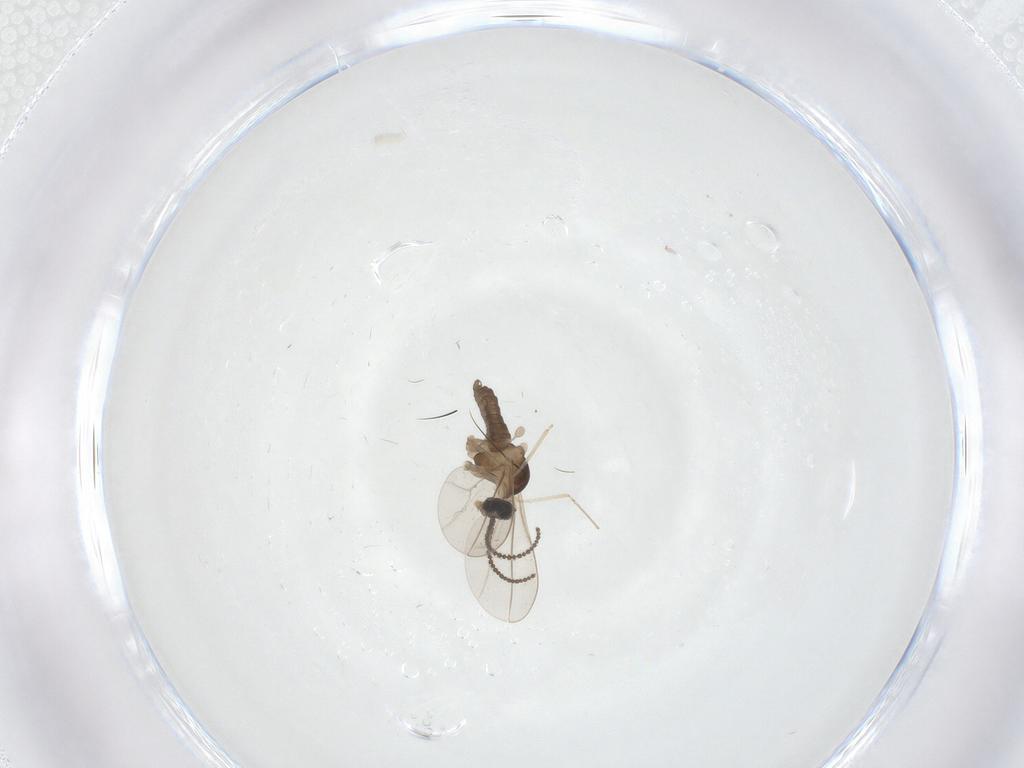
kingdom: Animalia
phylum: Arthropoda
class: Insecta
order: Diptera
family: Cecidomyiidae
